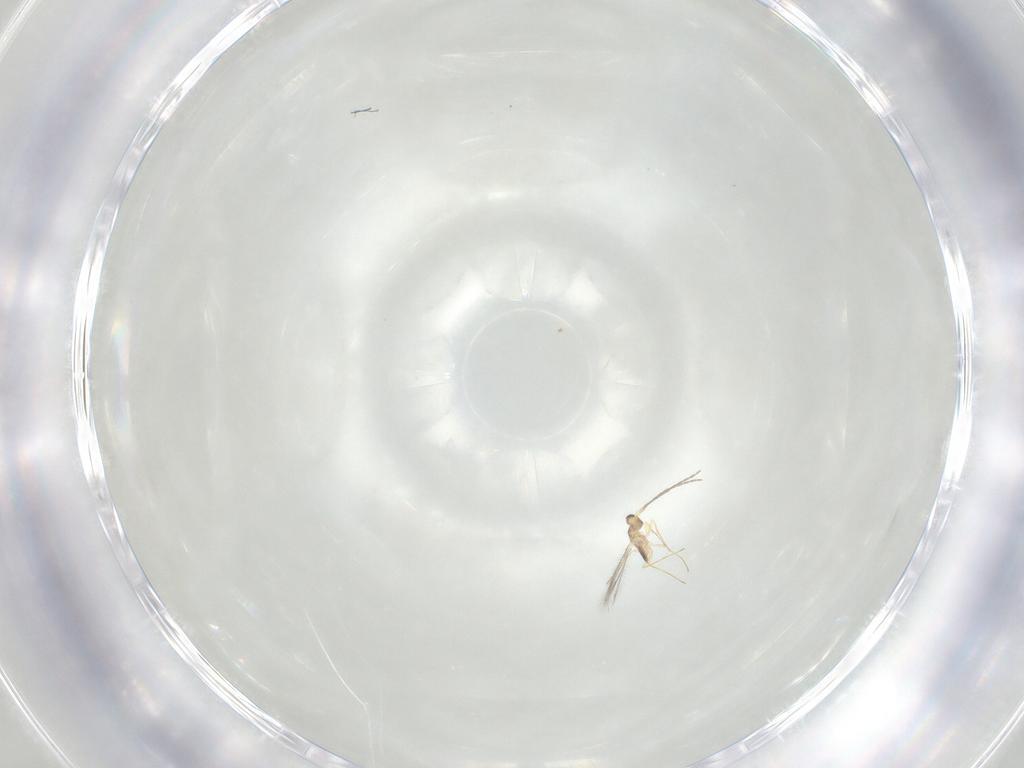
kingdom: Animalia
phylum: Arthropoda
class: Insecta
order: Hymenoptera
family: Mymaridae
